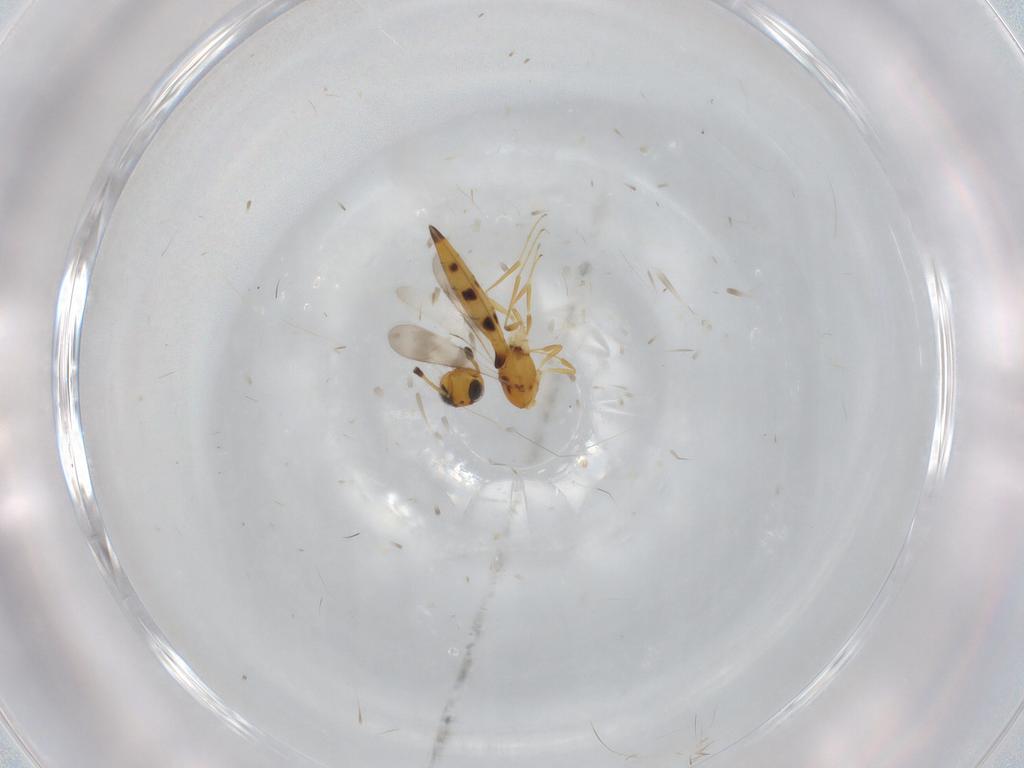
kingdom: Animalia
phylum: Arthropoda
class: Insecta
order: Hymenoptera
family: Scelionidae
